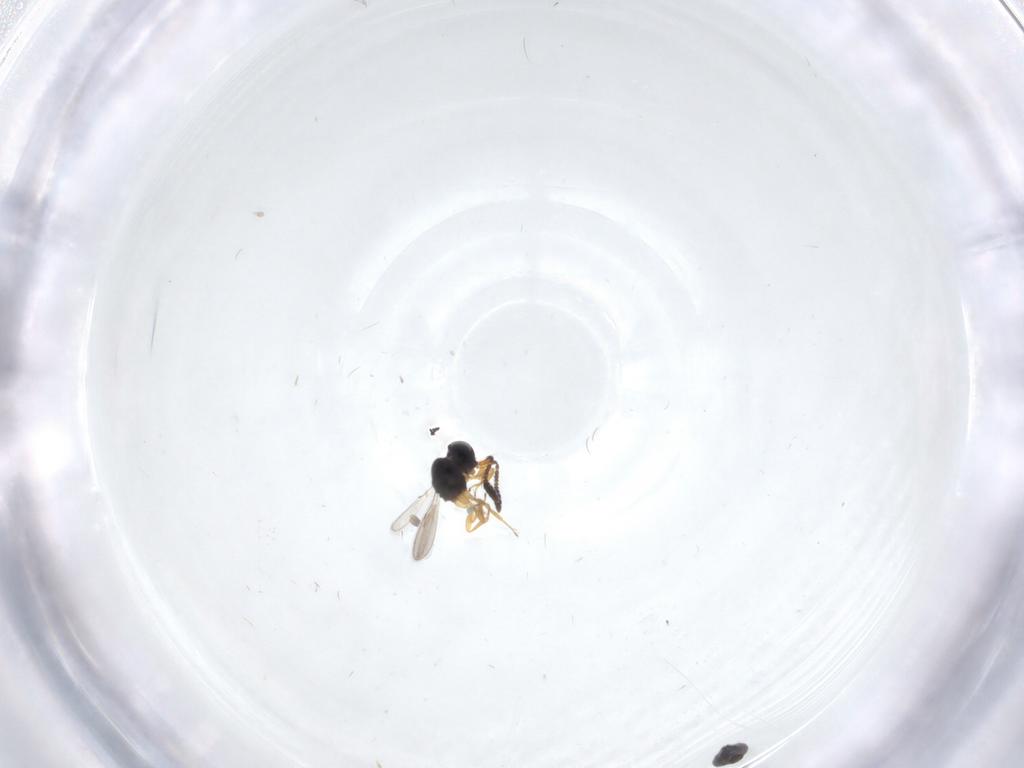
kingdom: Animalia
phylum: Arthropoda
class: Insecta
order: Hymenoptera
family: Scelionidae
